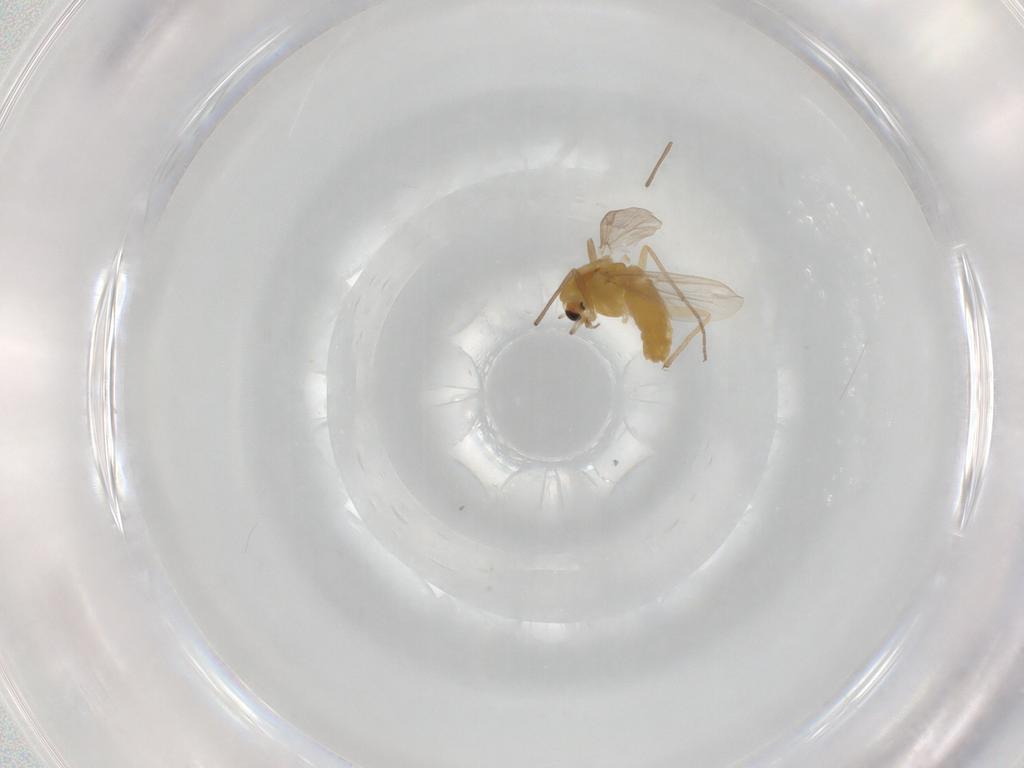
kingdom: Animalia
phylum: Arthropoda
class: Insecta
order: Diptera
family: Chironomidae
